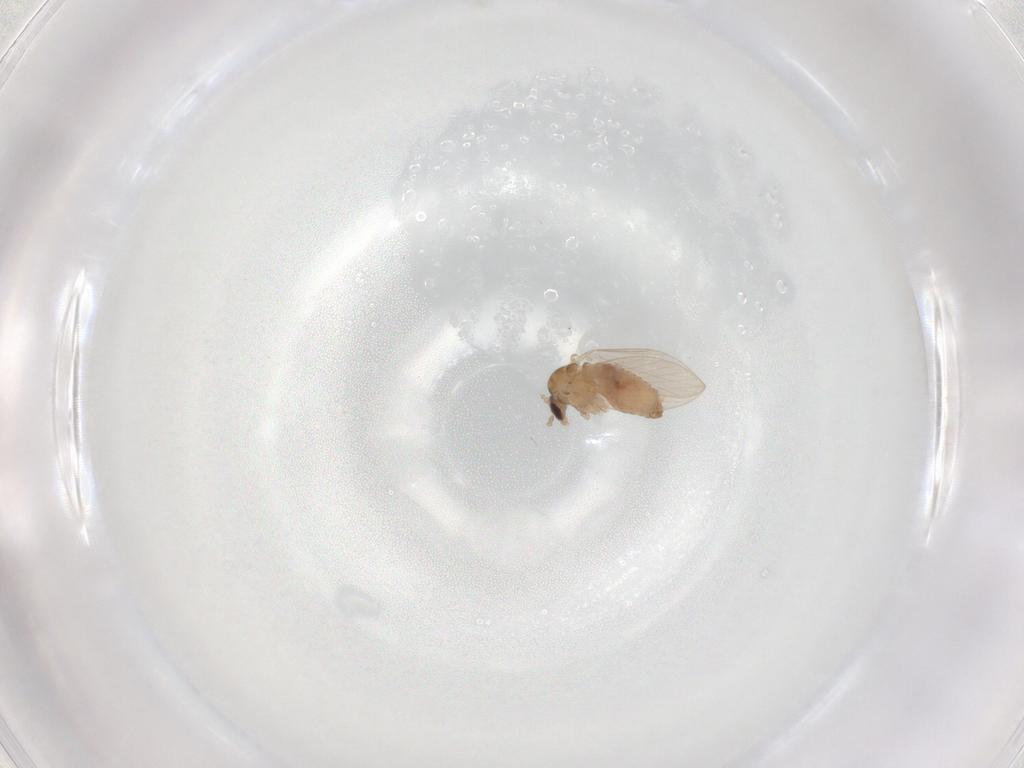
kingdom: Animalia
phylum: Arthropoda
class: Insecta
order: Diptera
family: Psychodidae
